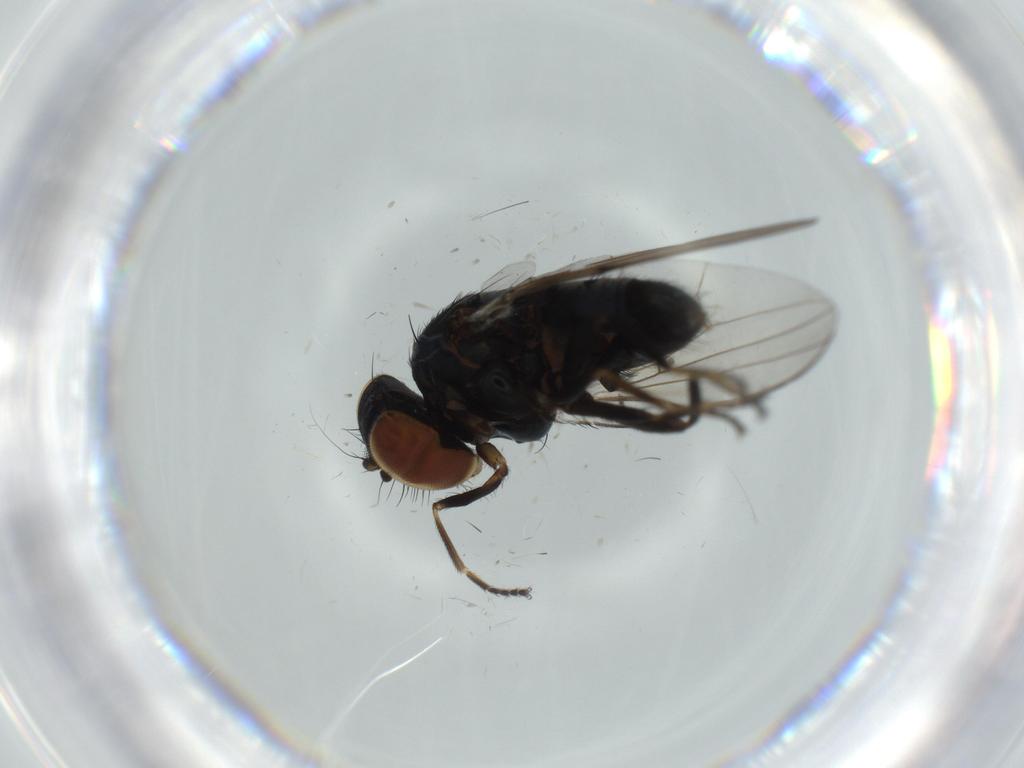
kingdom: Animalia
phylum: Arthropoda
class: Insecta
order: Diptera
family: Milichiidae
